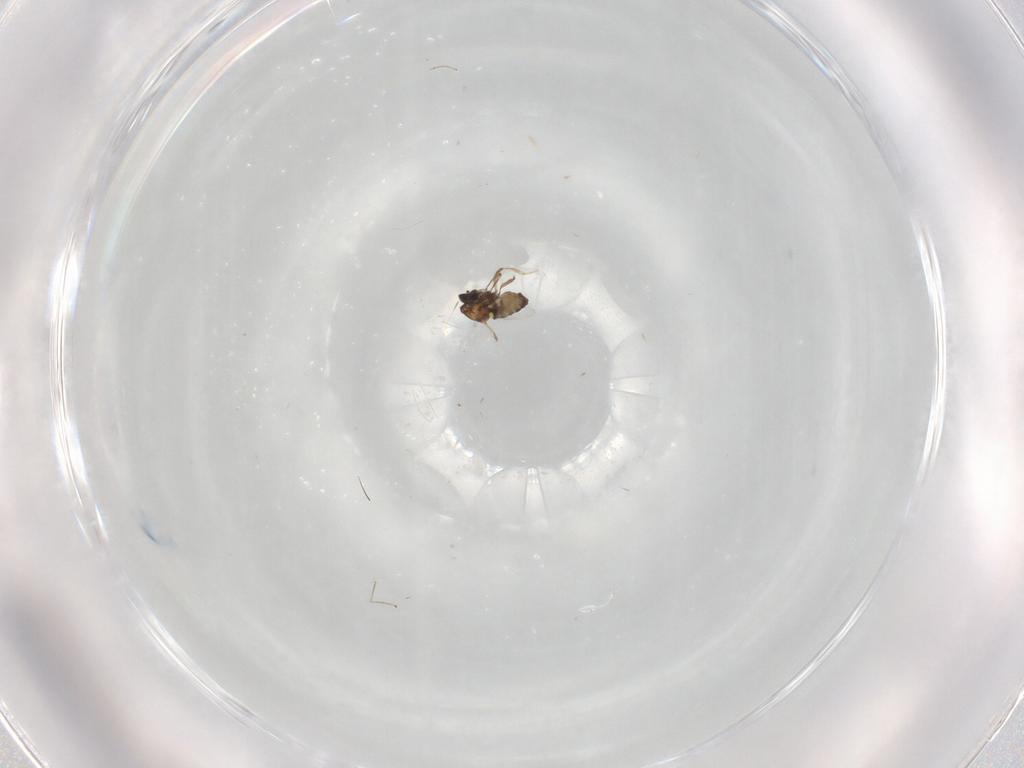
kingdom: Animalia
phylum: Arthropoda
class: Insecta
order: Diptera
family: Ceratopogonidae
